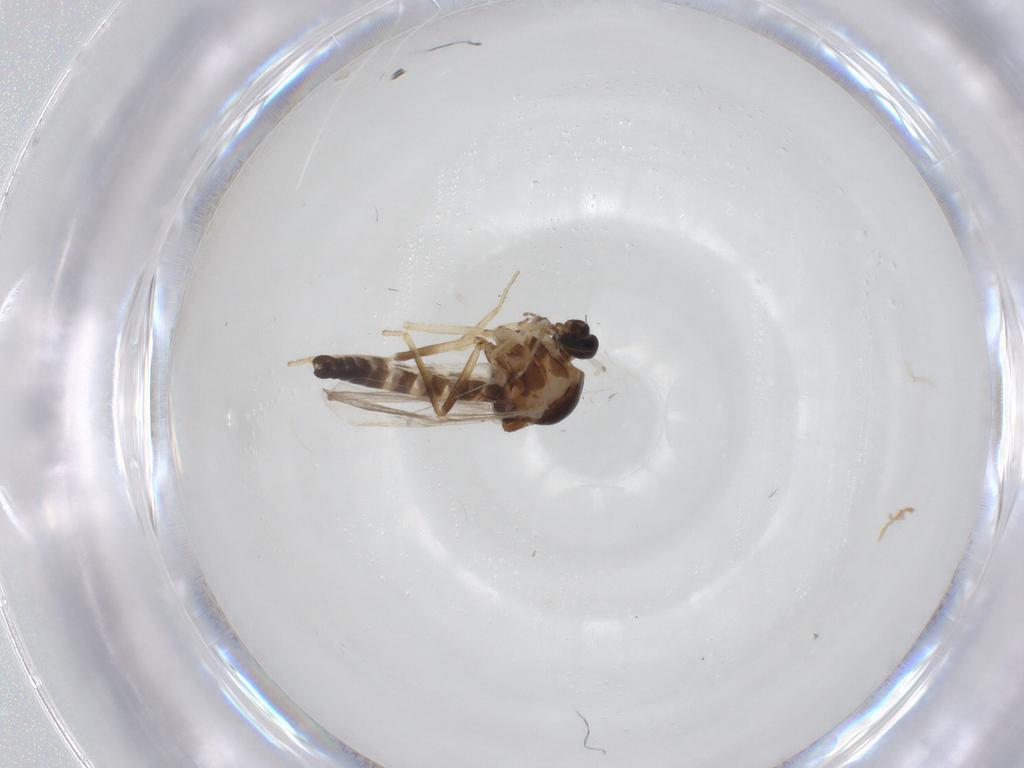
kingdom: Animalia
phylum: Arthropoda
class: Insecta
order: Diptera
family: Ceratopogonidae
